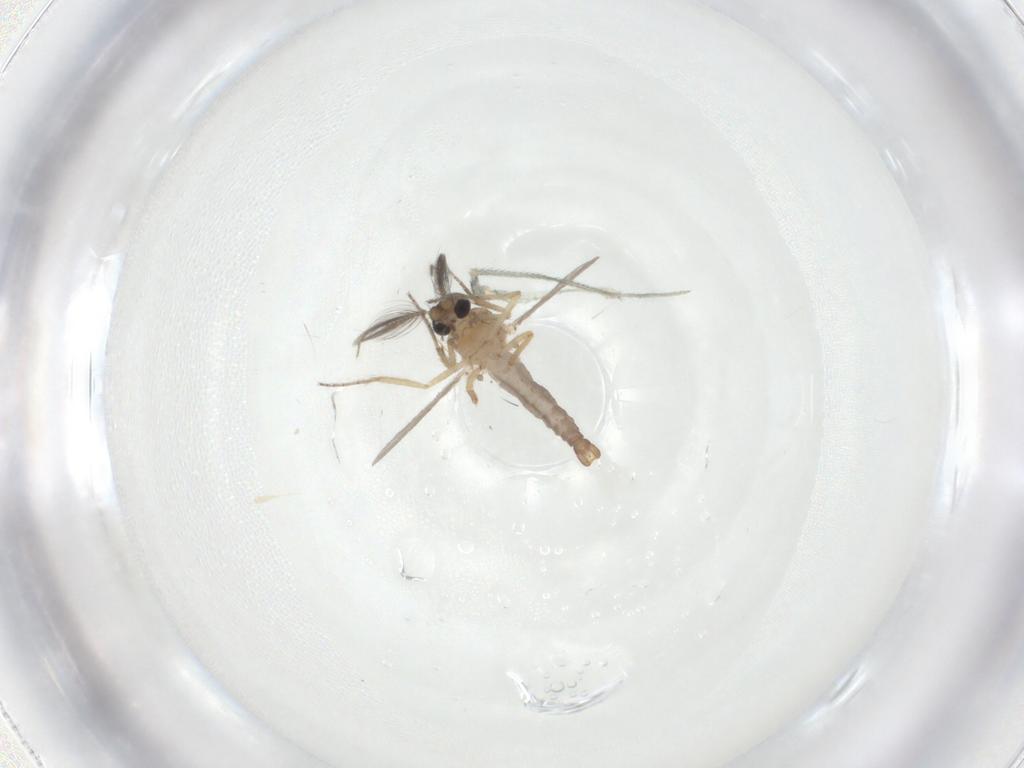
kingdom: Animalia
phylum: Arthropoda
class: Insecta
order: Diptera
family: Ceratopogonidae
